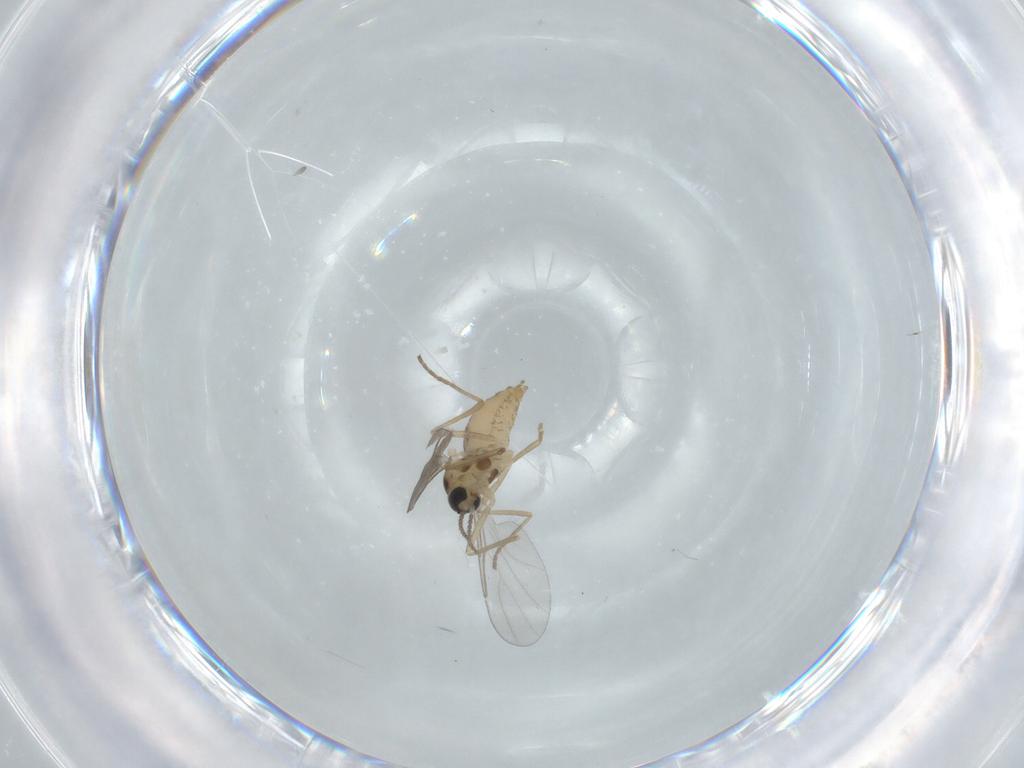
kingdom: Animalia
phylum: Arthropoda
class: Insecta
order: Diptera
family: Cecidomyiidae
